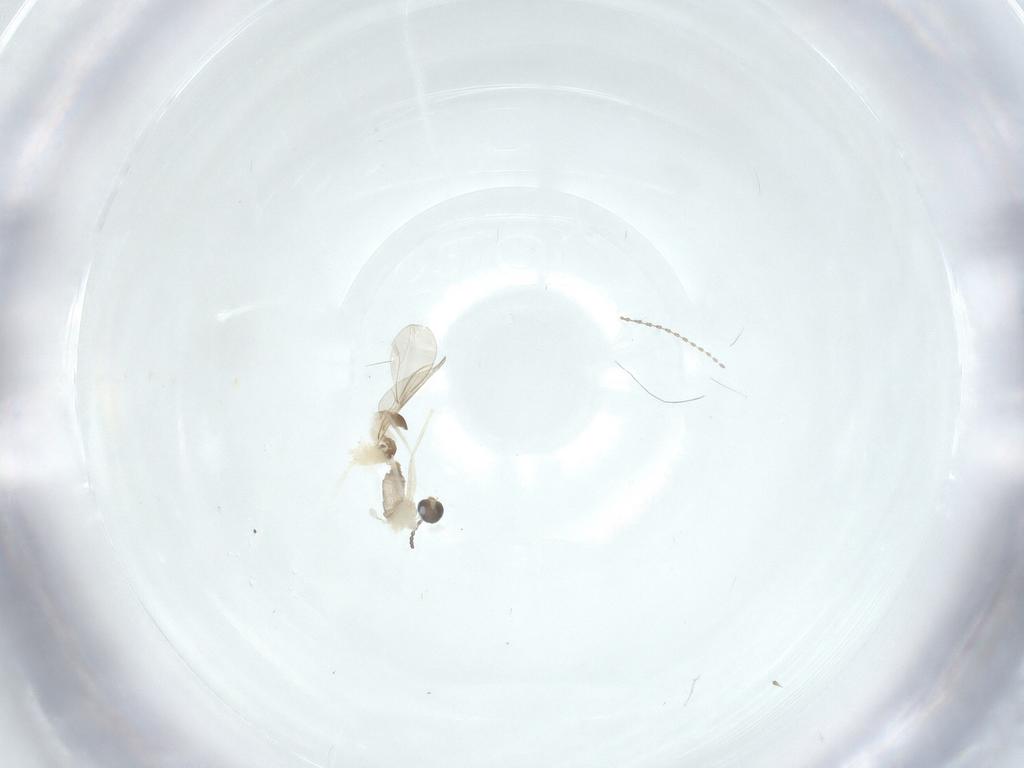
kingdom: Animalia
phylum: Arthropoda
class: Insecta
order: Diptera
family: Cecidomyiidae
